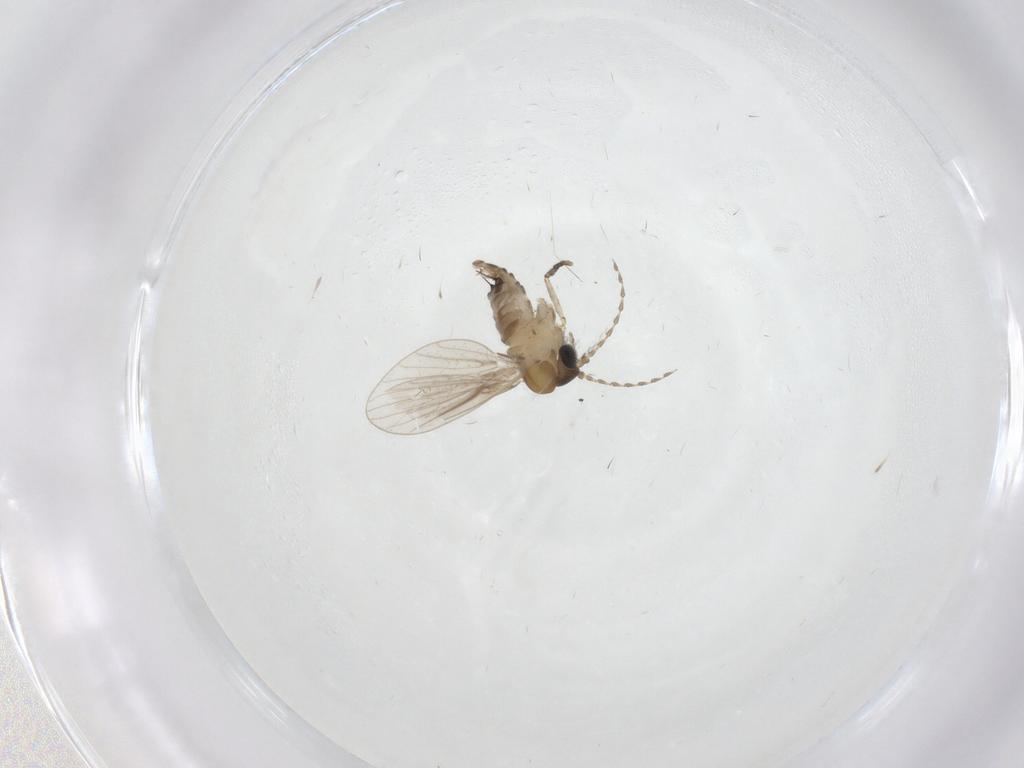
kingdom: Animalia
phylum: Arthropoda
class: Insecta
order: Diptera
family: Psychodidae
